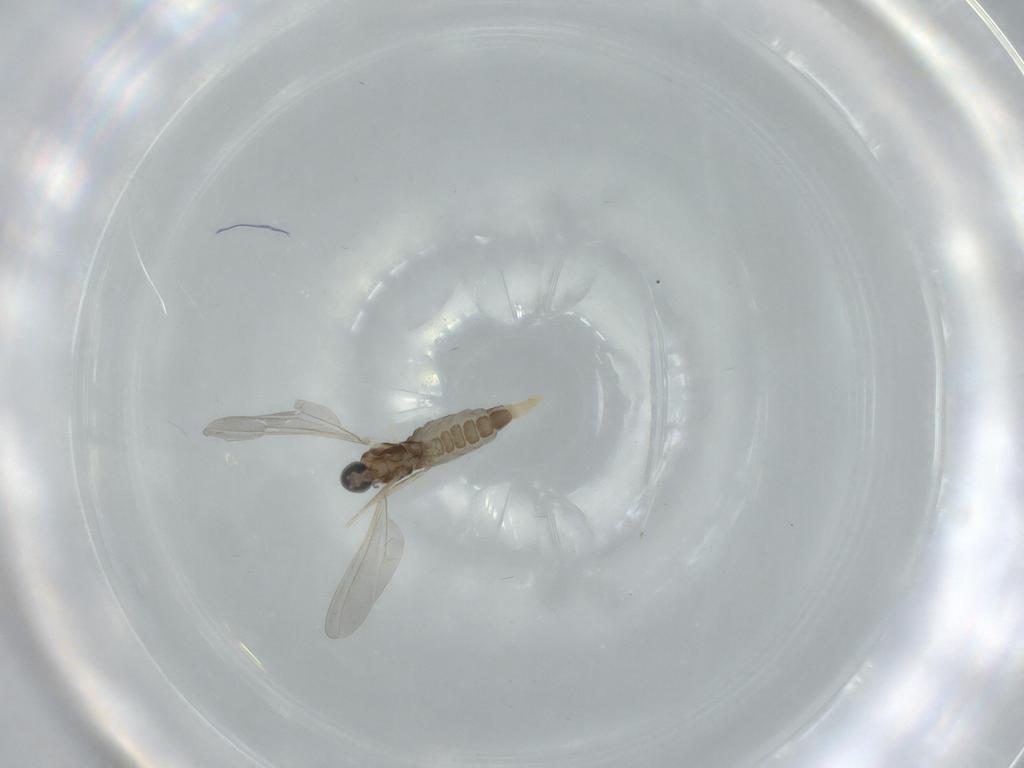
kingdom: Animalia
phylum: Arthropoda
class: Insecta
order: Diptera
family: Cecidomyiidae
